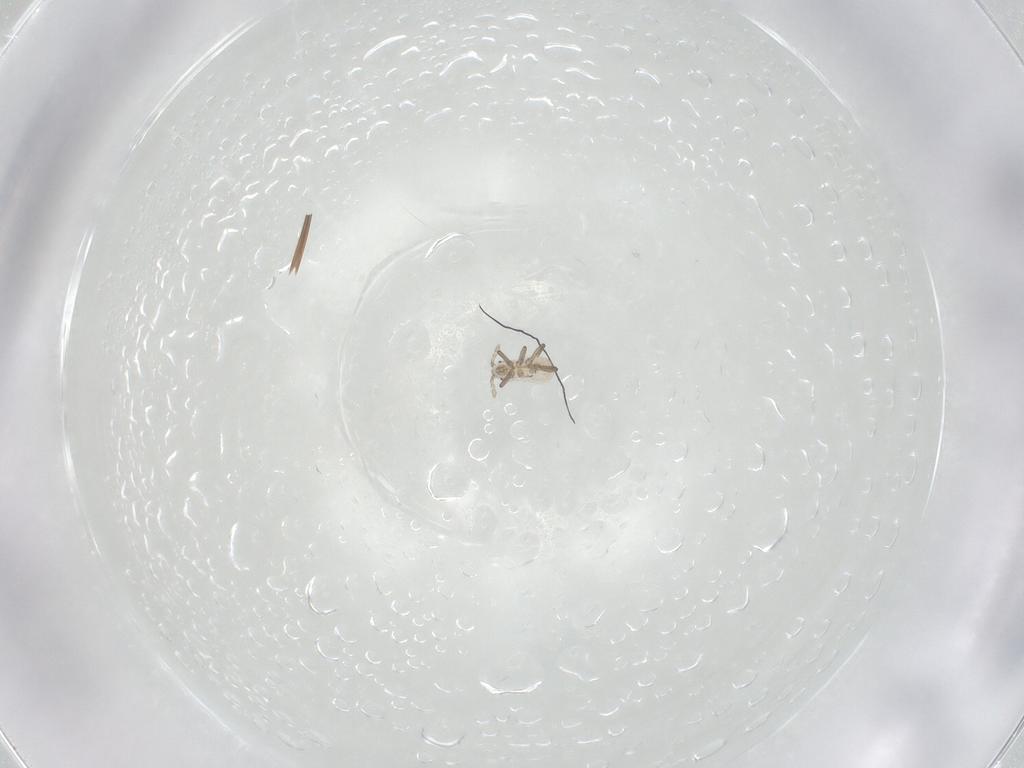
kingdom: Animalia
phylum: Arthropoda
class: Insecta
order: Hemiptera
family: Aphididae
